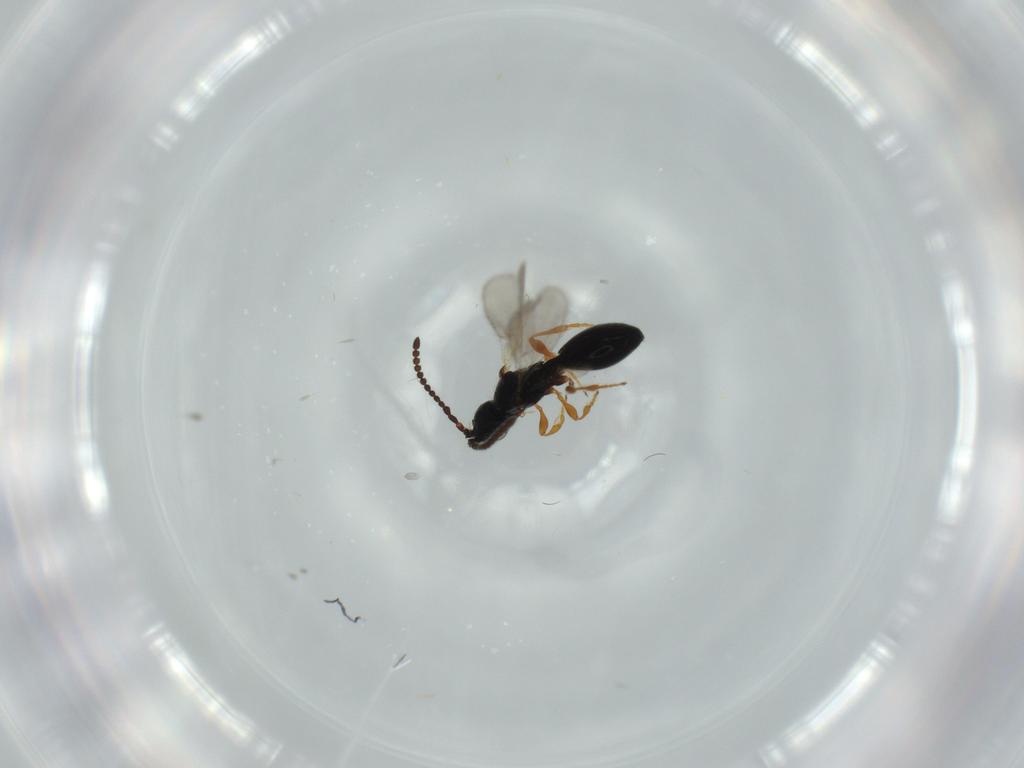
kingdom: Animalia
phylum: Arthropoda
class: Insecta
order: Hymenoptera
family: Diapriidae
